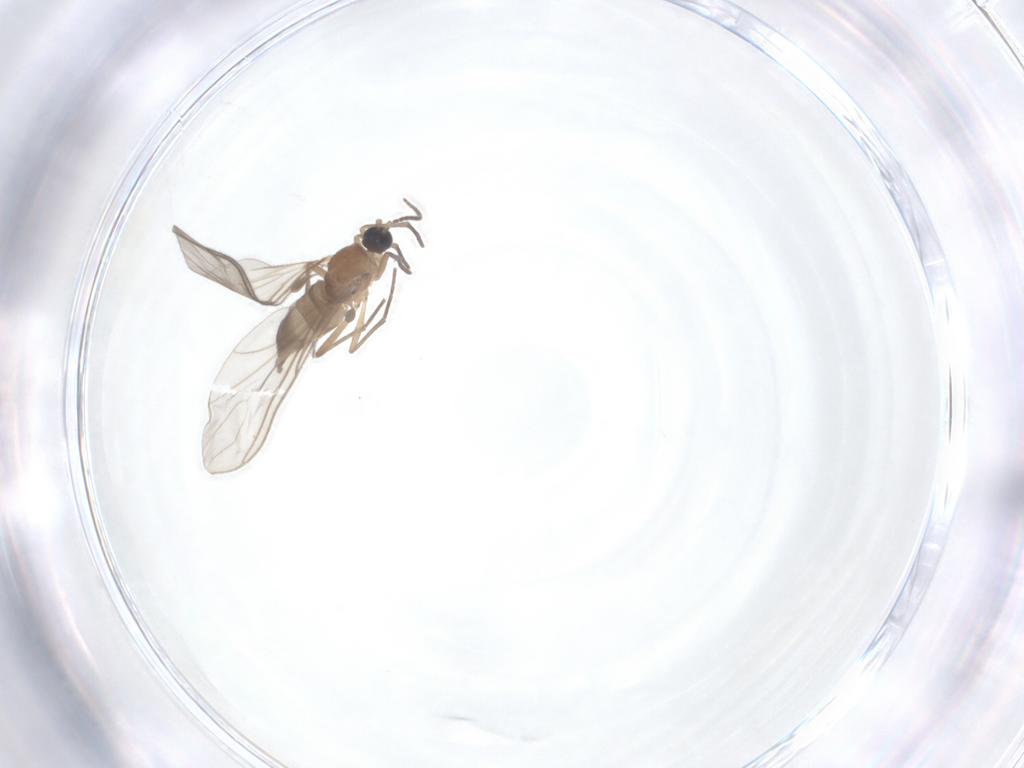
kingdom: Animalia
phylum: Arthropoda
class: Insecta
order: Diptera
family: Sciaridae
